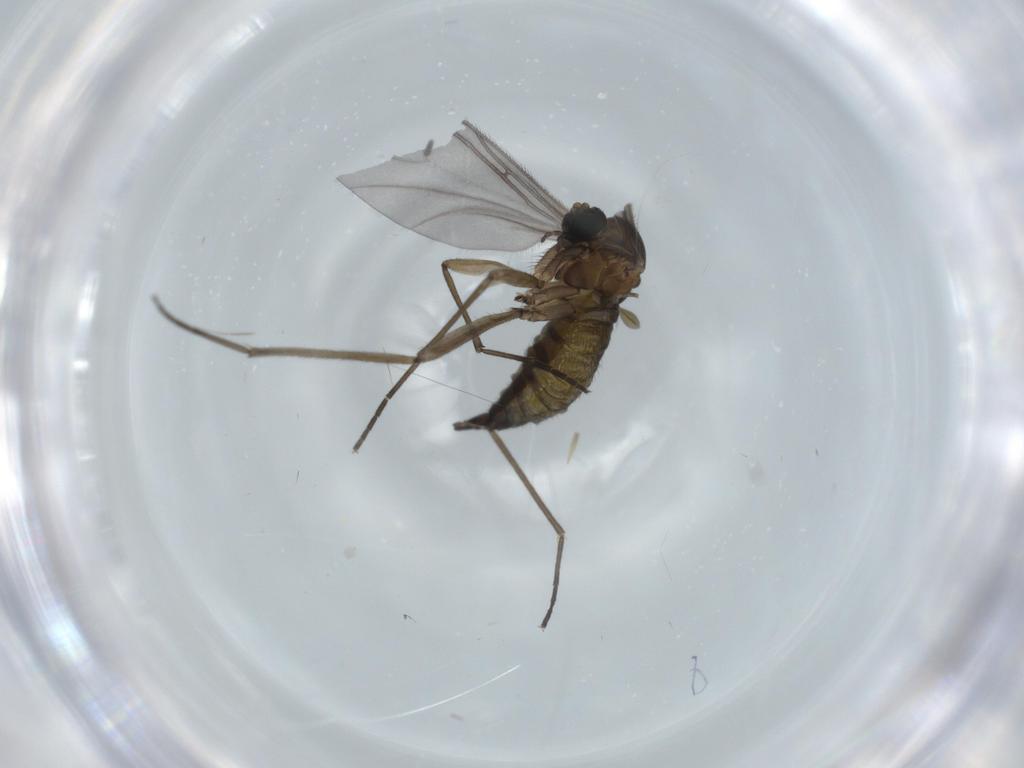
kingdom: Animalia
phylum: Arthropoda
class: Insecta
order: Diptera
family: Sciaridae
